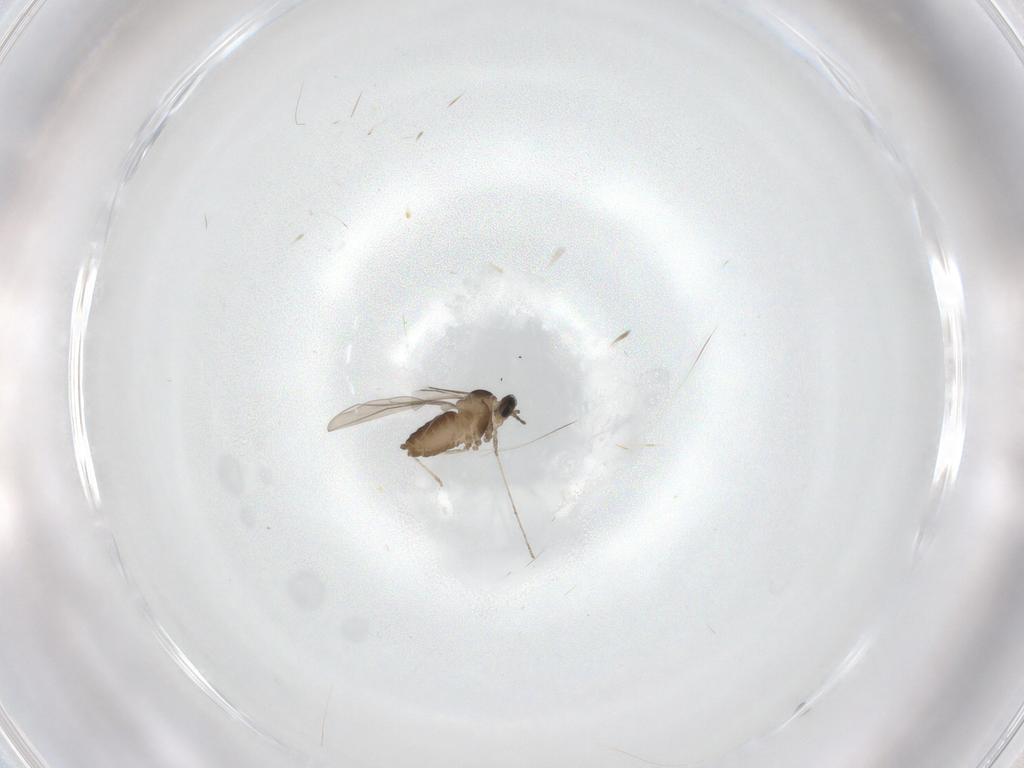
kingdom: Animalia
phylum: Arthropoda
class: Insecta
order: Diptera
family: Cecidomyiidae
